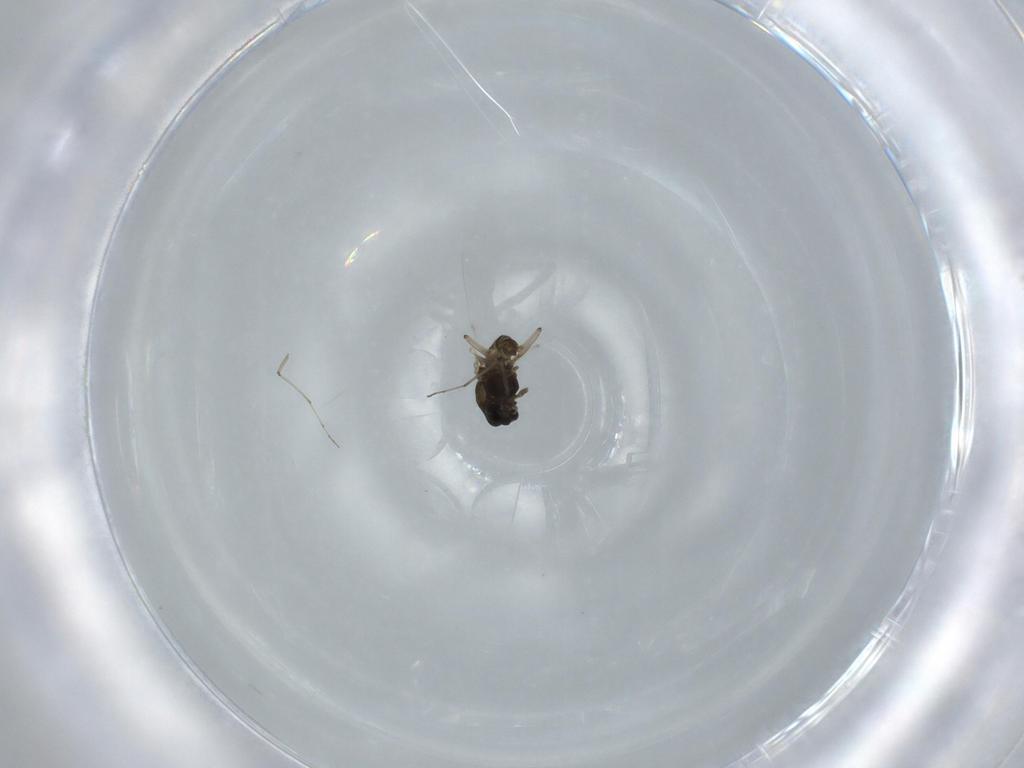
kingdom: Animalia
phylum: Arthropoda
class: Insecta
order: Diptera
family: Chironomidae
